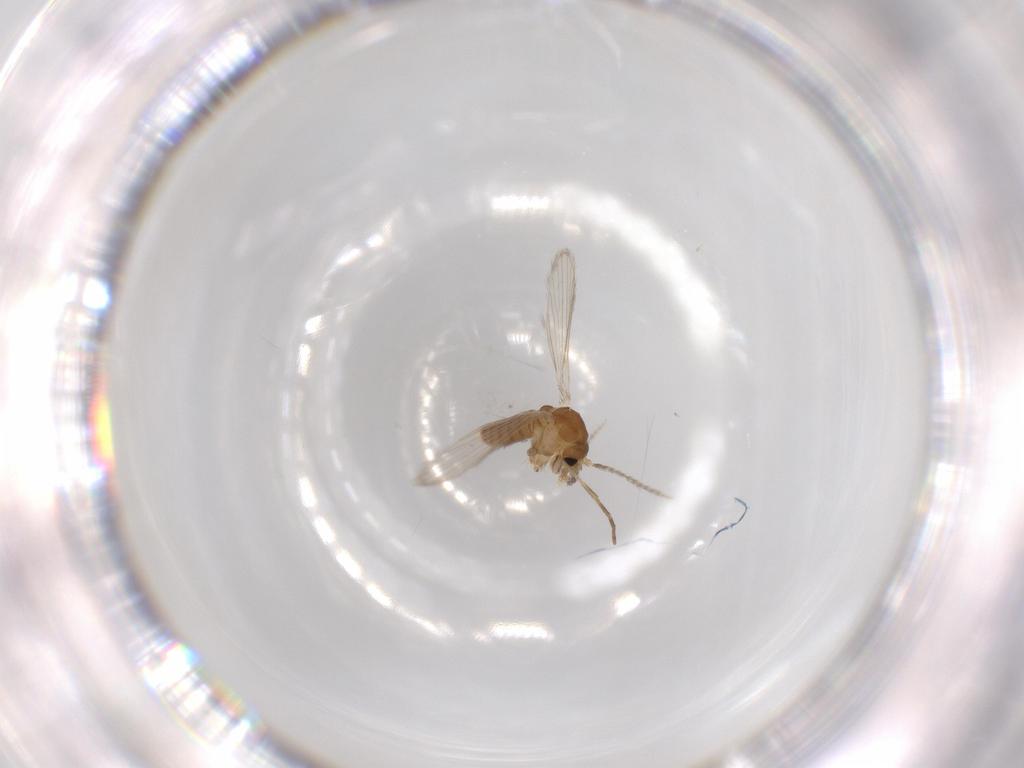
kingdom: Animalia
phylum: Arthropoda
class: Insecta
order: Diptera
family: Psychodidae
